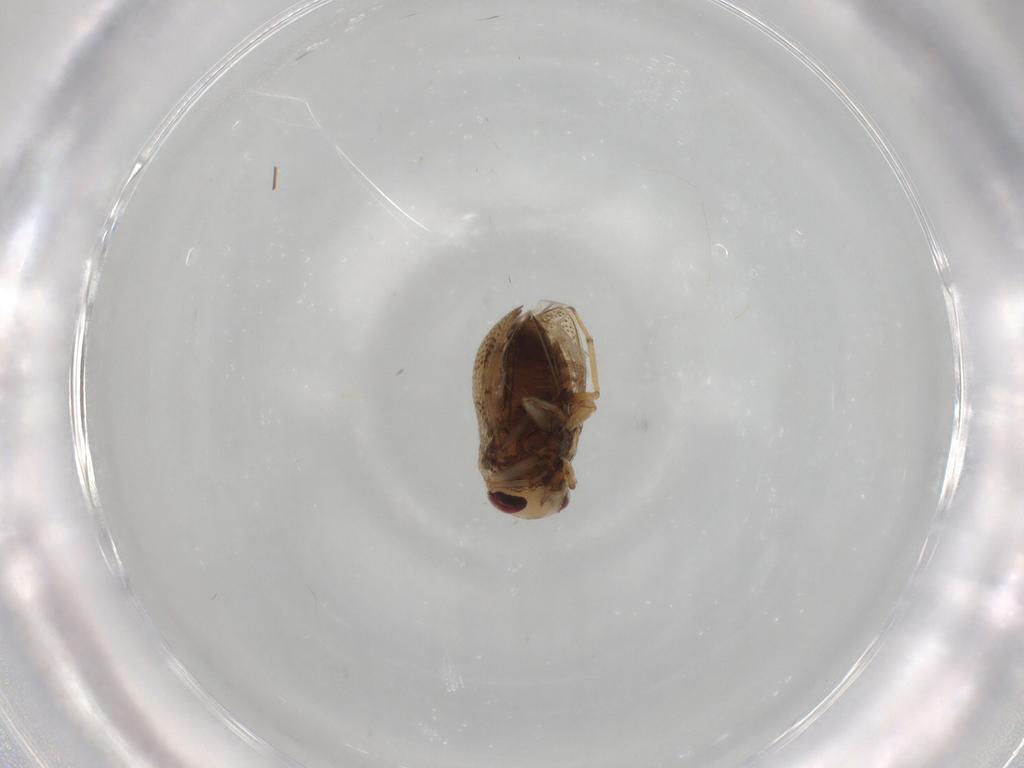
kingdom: Animalia
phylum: Arthropoda
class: Insecta
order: Hemiptera
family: Pleidae
